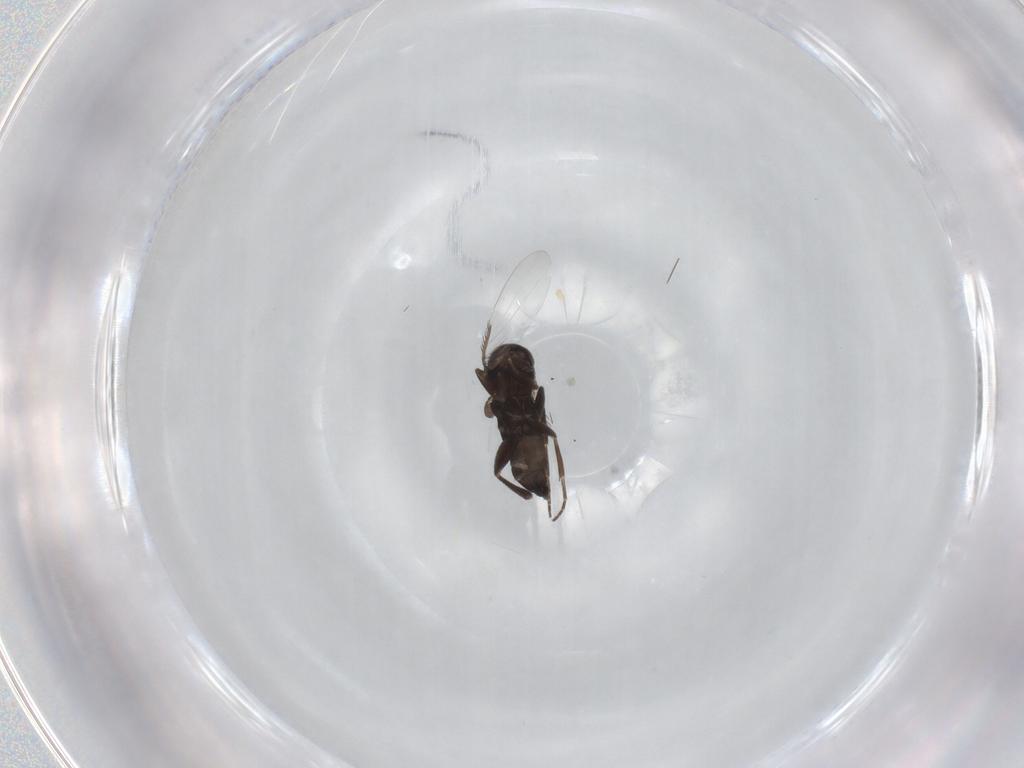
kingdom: Animalia
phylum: Arthropoda
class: Insecta
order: Diptera
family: Phoridae
